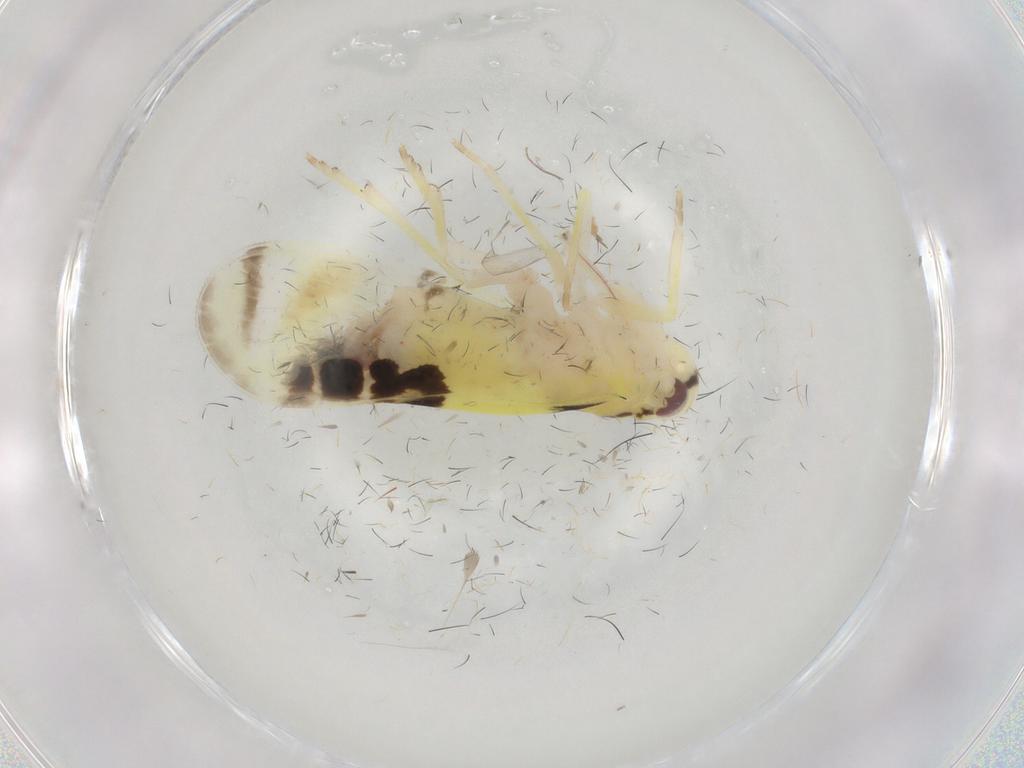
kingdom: Animalia
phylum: Arthropoda
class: Insecta
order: Hemiptera
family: Derbidae
